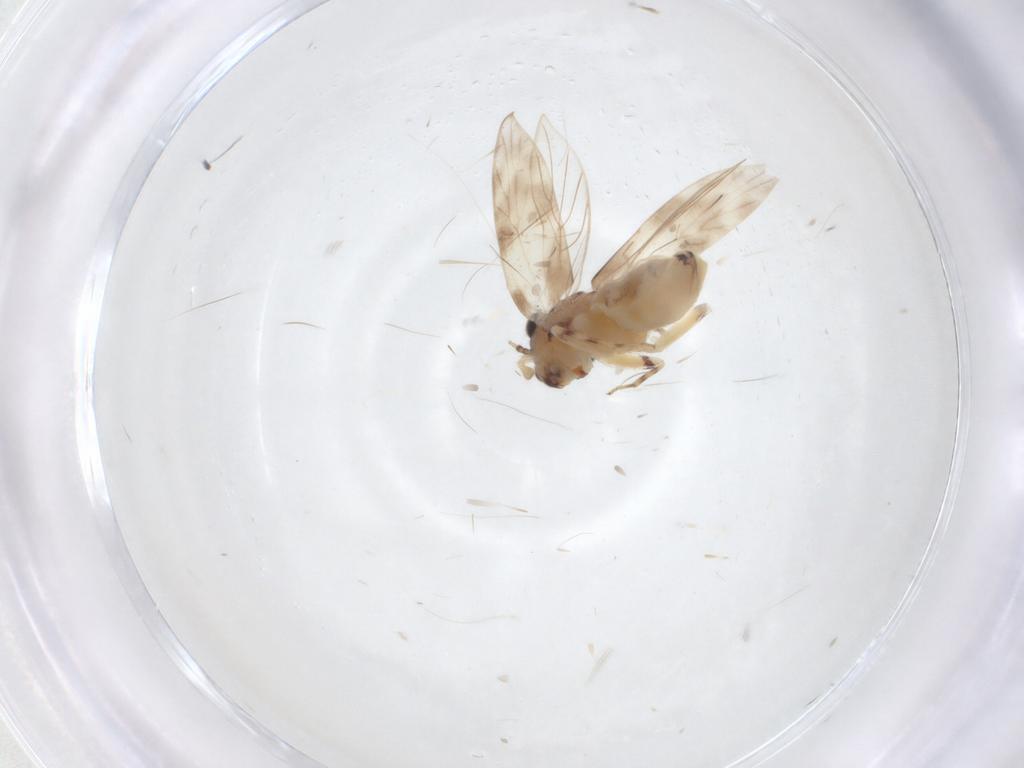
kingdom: Animalia
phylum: Arthropoda
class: Insecta
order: Psocodea
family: Lepidopsocidae
